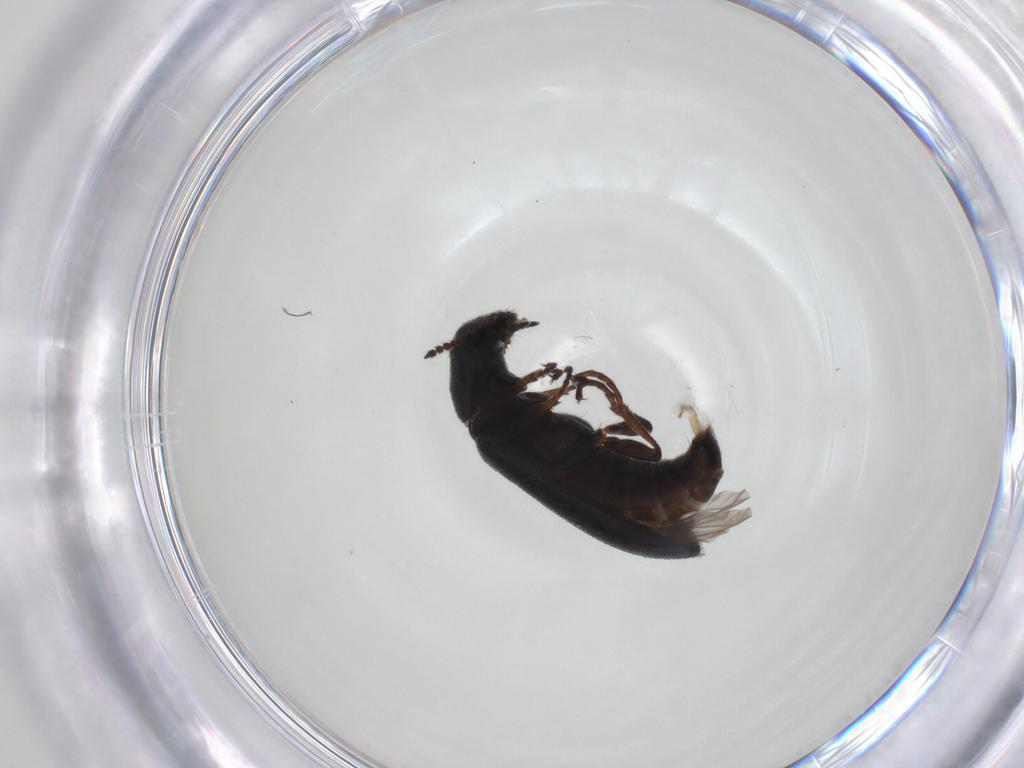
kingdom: Animalia
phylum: Arthropoda
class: Insecta
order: Coleoptera
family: Melyridae
